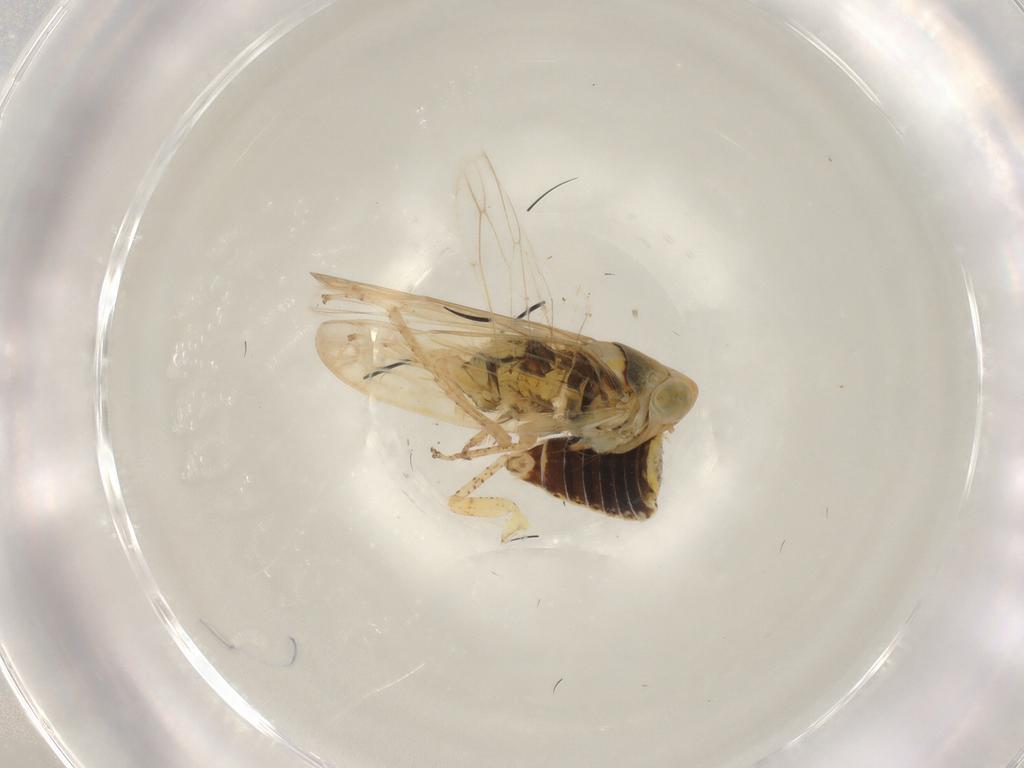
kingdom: Animalia
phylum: Arthropoda
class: Insecta
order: Hemiptera
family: Cicadellidae
